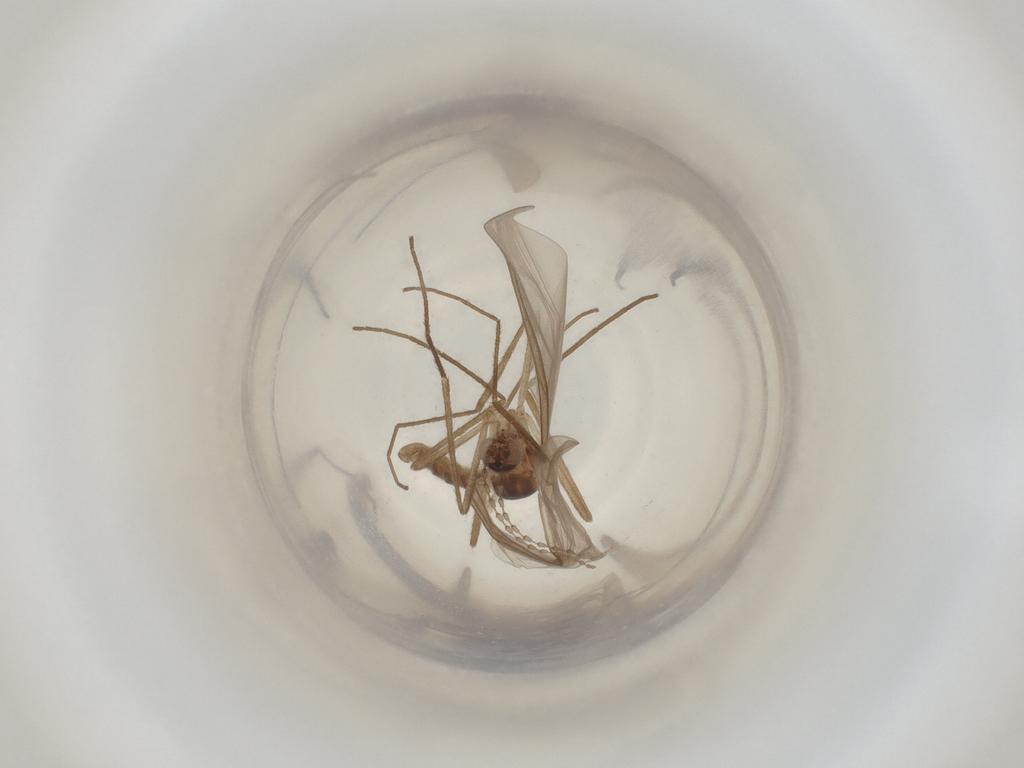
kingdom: Animalia
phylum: Arthropoda
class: Insecta
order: Diptera
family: Cecidomyiidae
